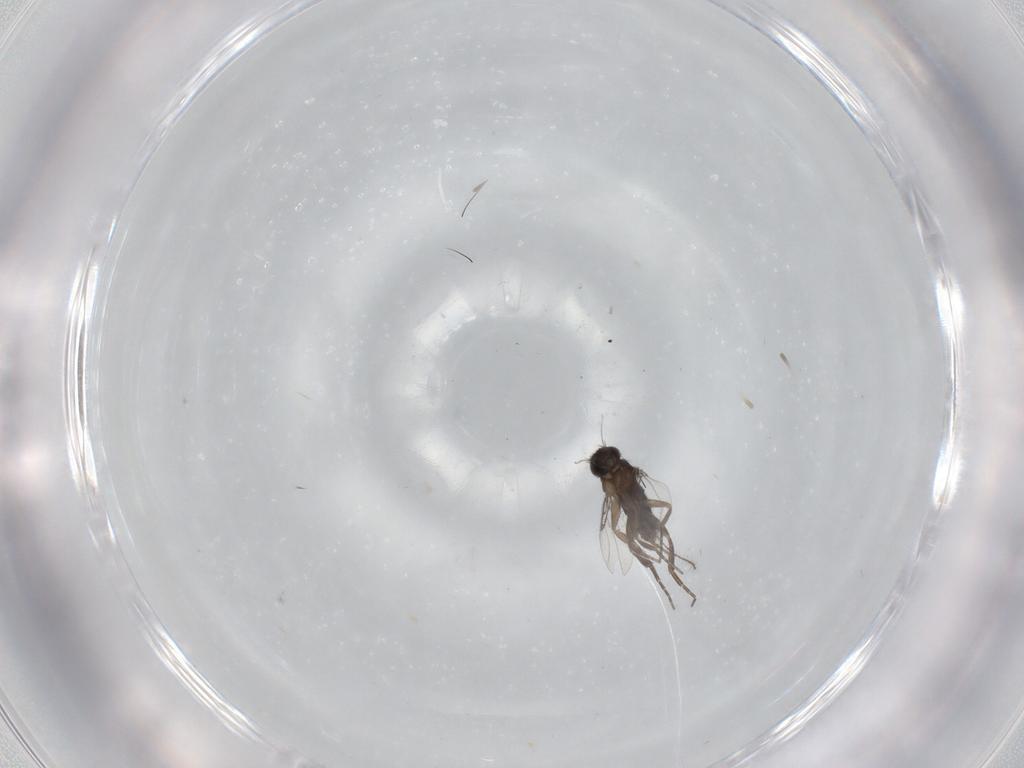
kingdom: Animalia
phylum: Arthropoda
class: Insecta
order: Diptera
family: Phoridae
